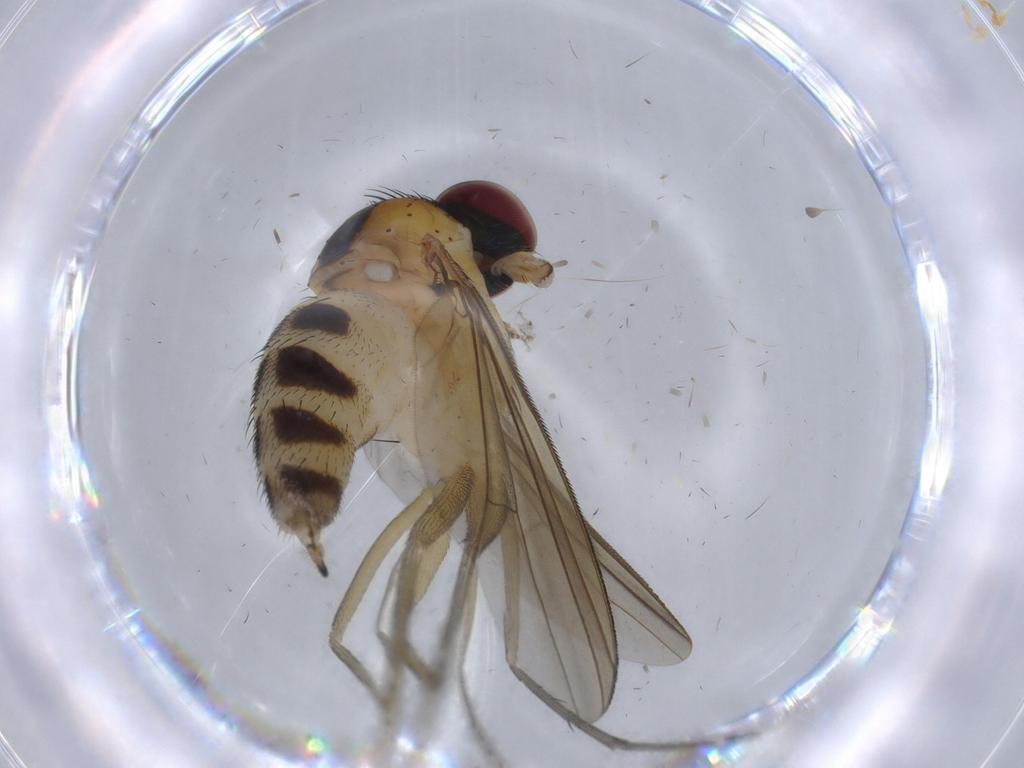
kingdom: Animalia
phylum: Arthropoda
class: Insecta
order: Diptera
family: Dolichopodidae
